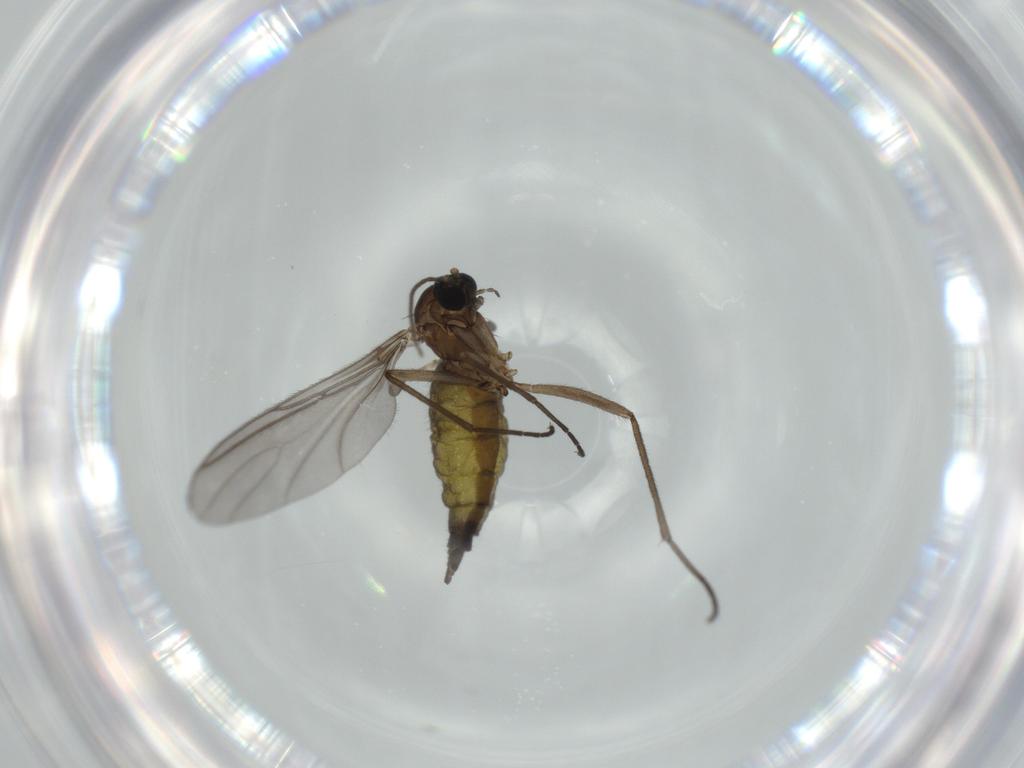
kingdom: Animalia
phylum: Arthropoda
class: Insecta
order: Diptera
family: Sciaridae
